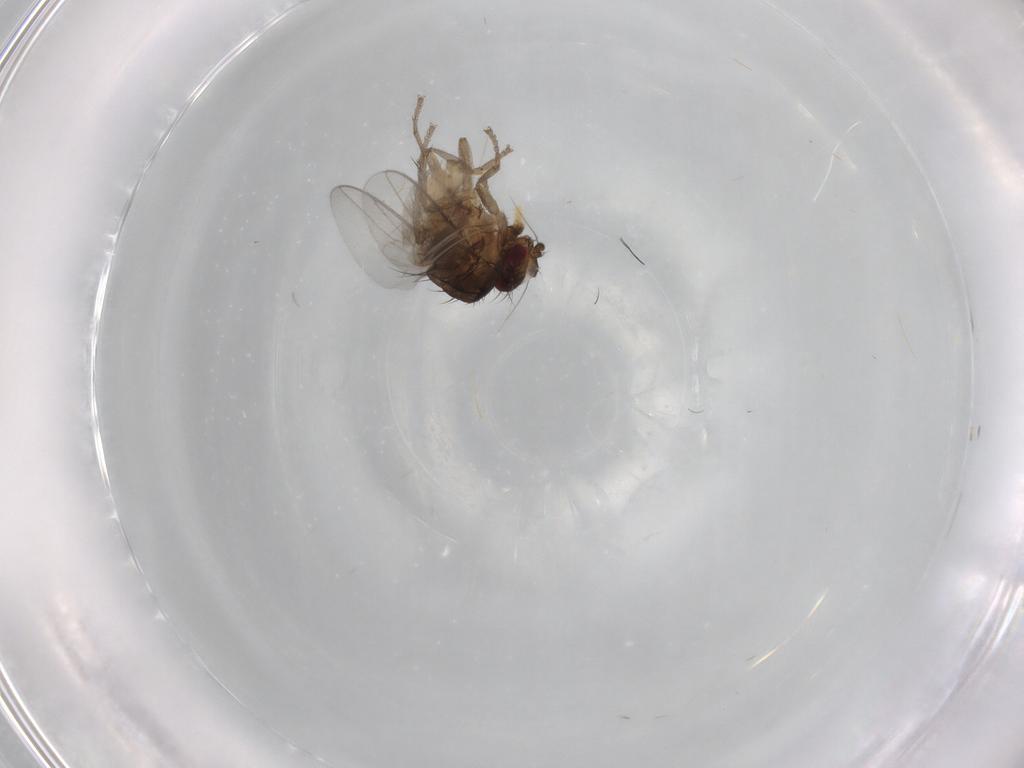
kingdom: Animalia
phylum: Arthropoda
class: Insecta
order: Diptera
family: Sphaeroceridae
